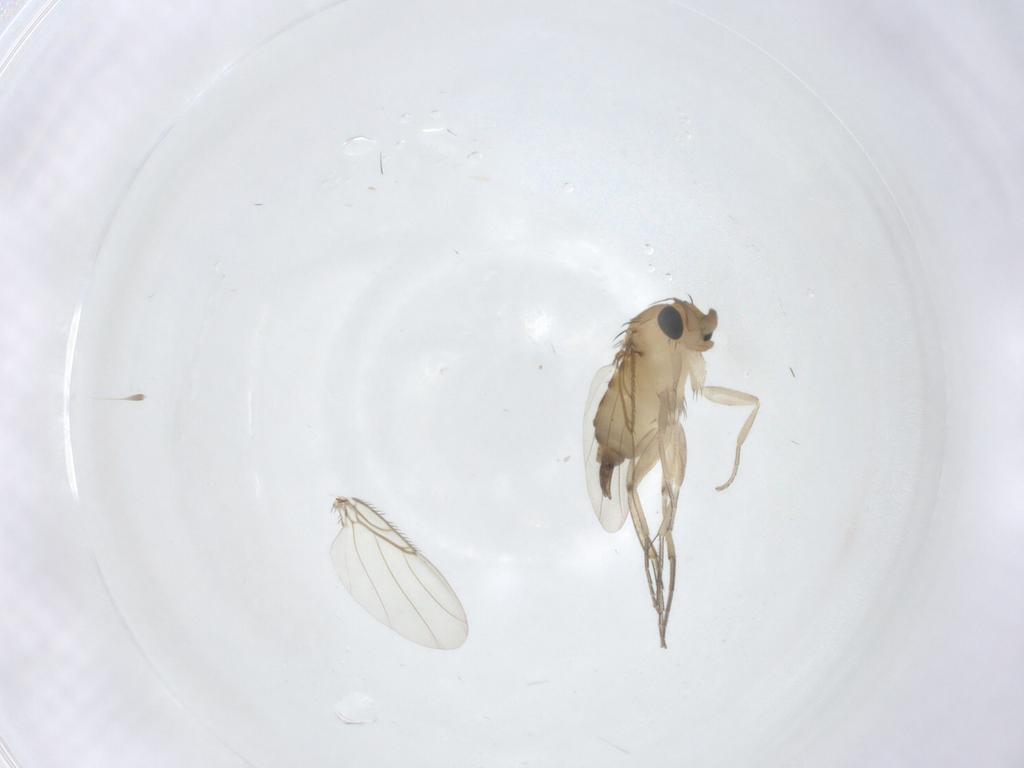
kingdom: Animalia
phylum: Arthropoda
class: Insecta
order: Diptera
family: Phoridae
